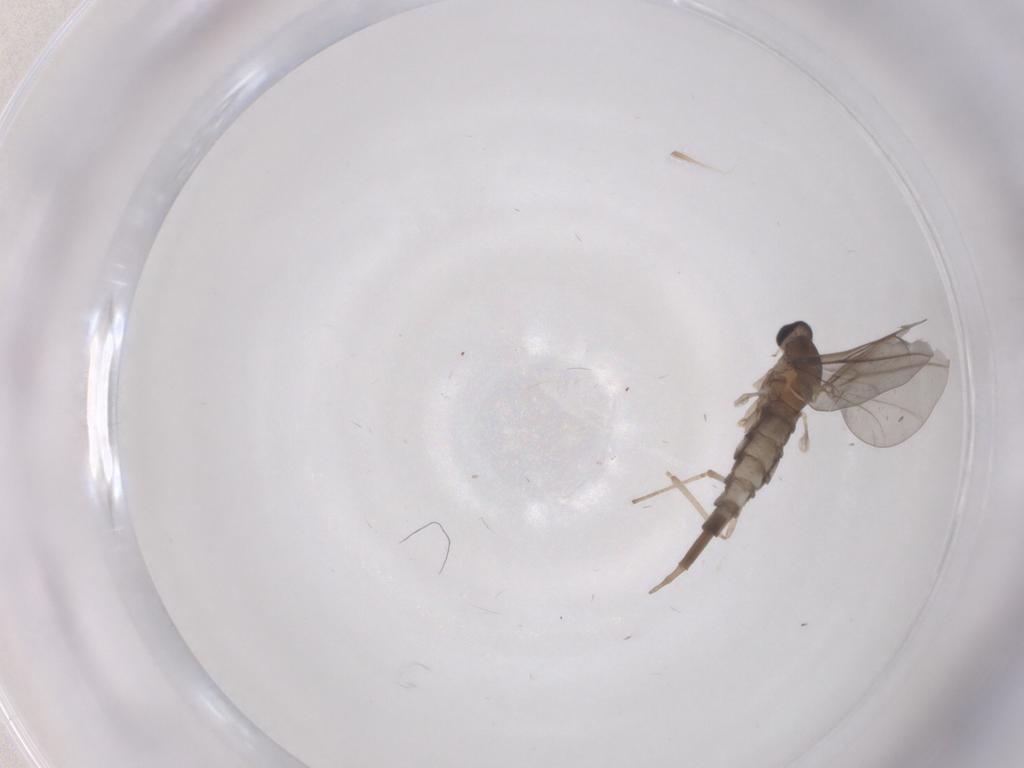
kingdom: Animalia
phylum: Arthropoda
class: Insecta
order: Diptera
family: Cecidomyiidae
